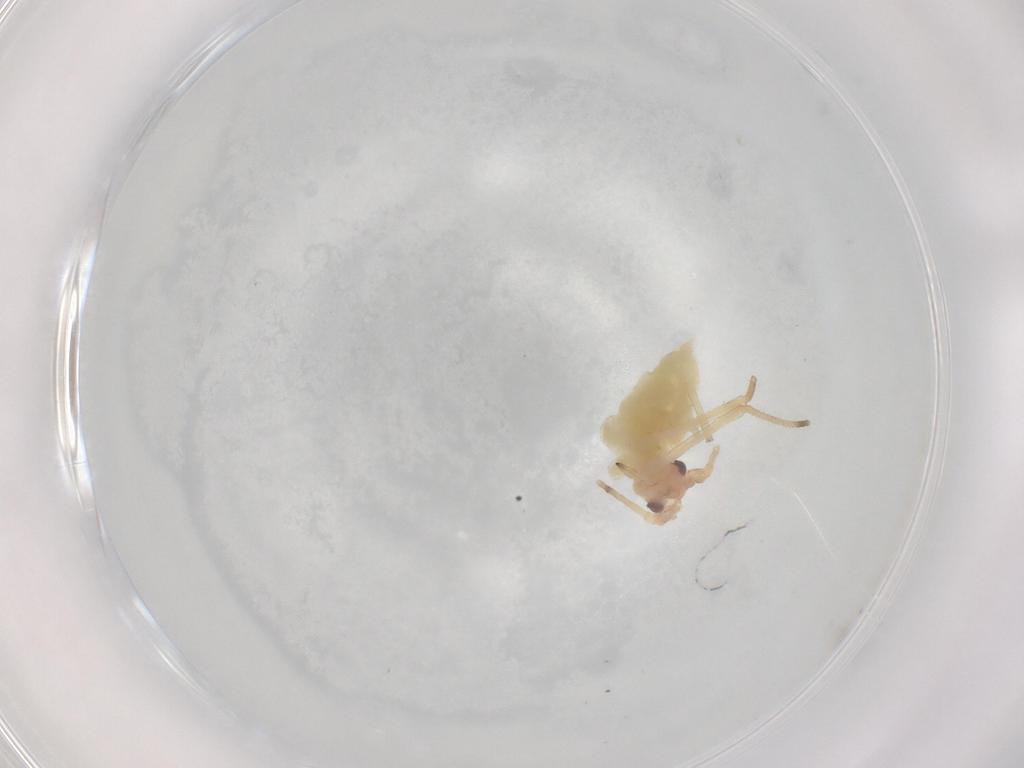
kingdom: Animalia
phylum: Arthropoda
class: Insecta
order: Hemiptera
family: Aphididae
